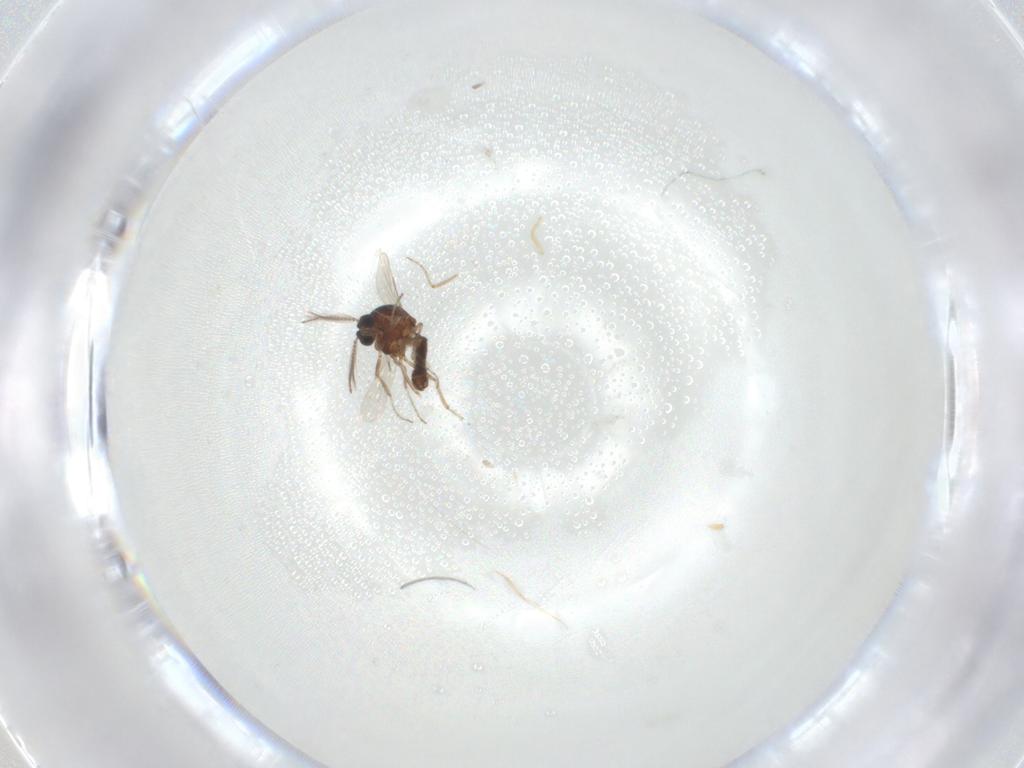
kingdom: Animalia
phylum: Arthropoda
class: Insecta
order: Diptera
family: Ceratopogonidae
